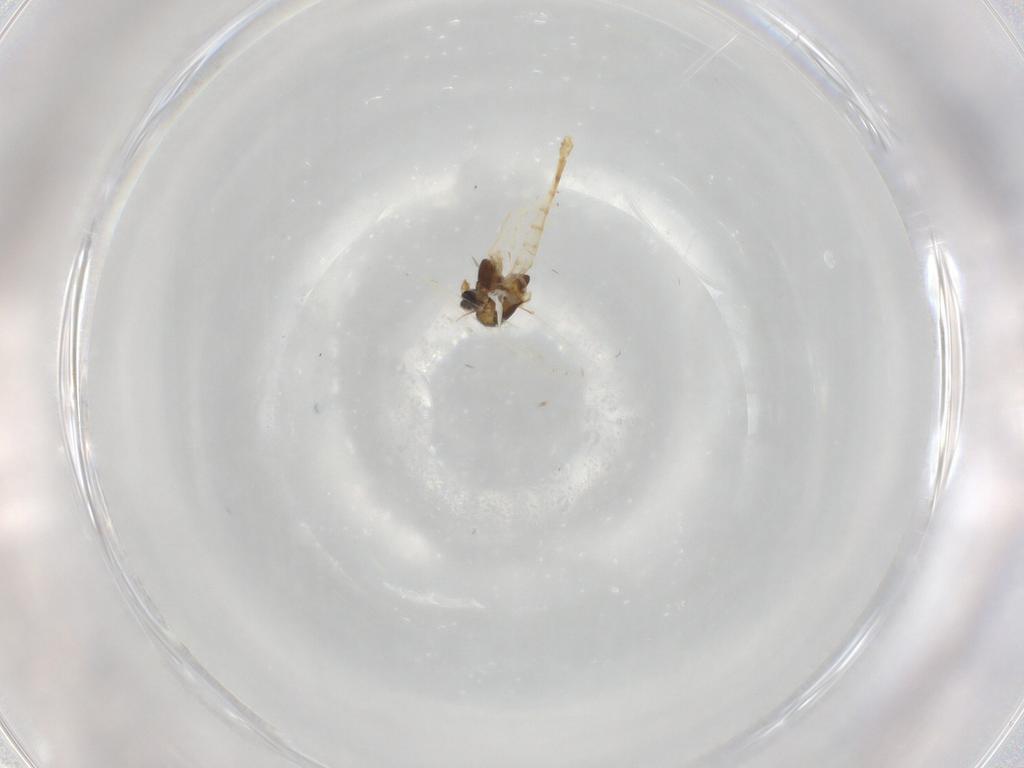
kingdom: Animalia
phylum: Arthropoda
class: Insecta
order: Diptera
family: Chironomidae
